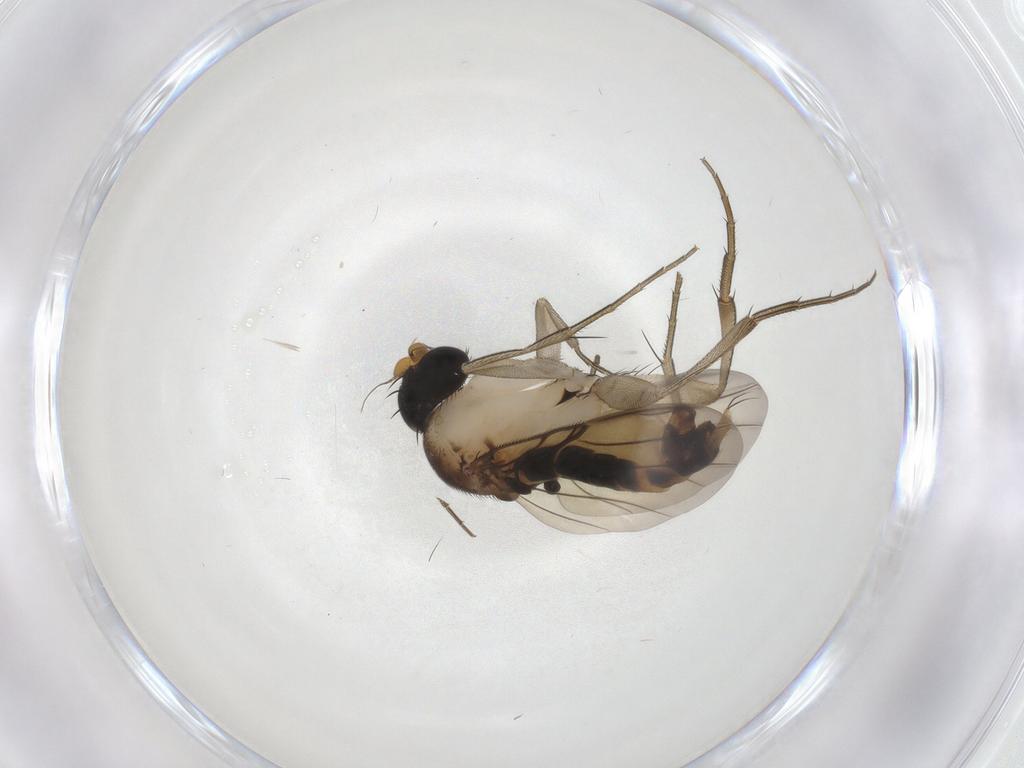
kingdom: Animalia
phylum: Arthropoda
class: Insecta
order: Diptera
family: Phoridae
